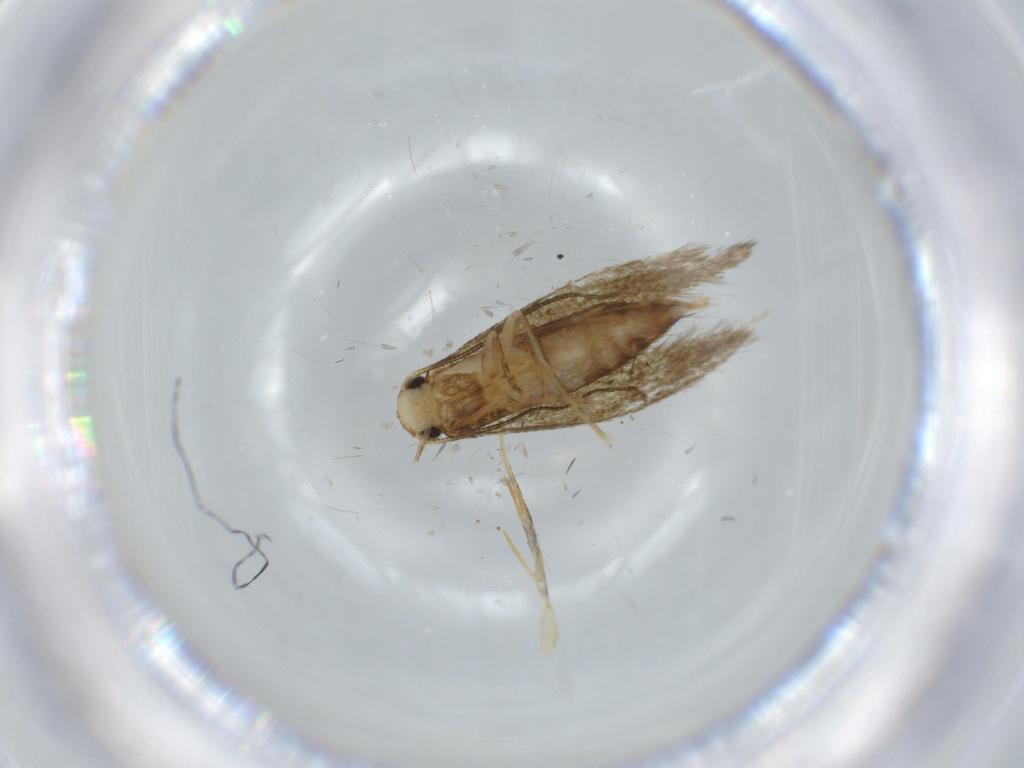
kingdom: Animalia
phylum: Arthropoda
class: Insecta
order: Lepidoptera
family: Tineidae
